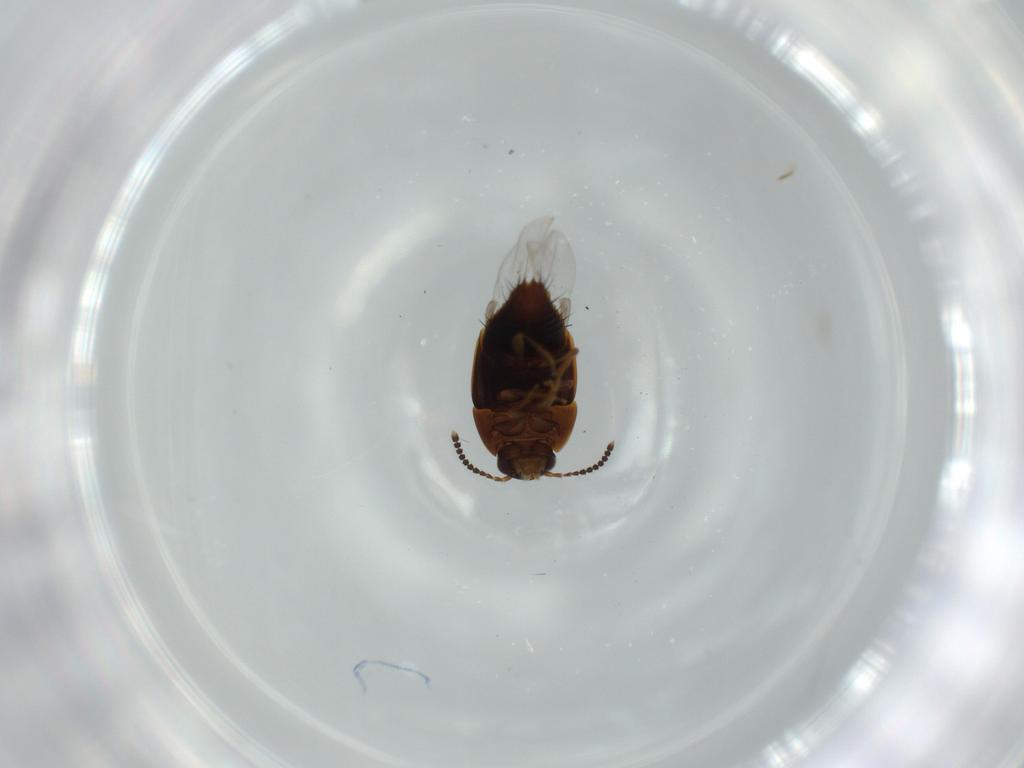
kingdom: Animalia
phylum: Arthropoda
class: Insecta
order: Coleoptera
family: Staphylinidae
